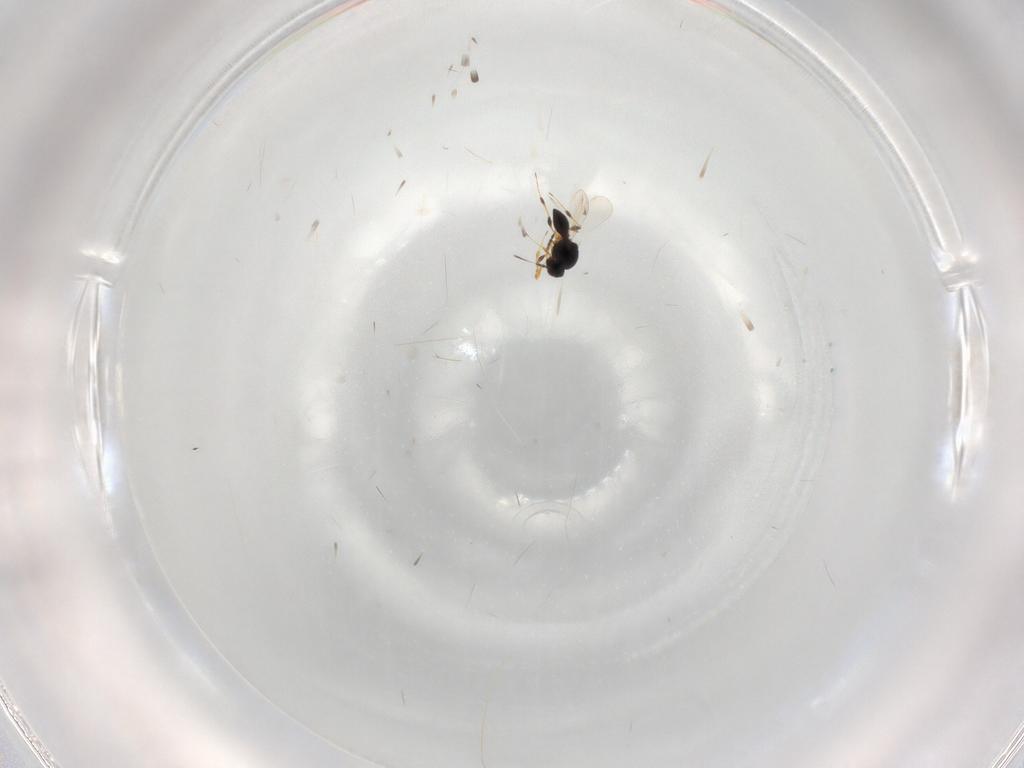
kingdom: Animalia
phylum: Arthropoda
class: Insecta
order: Hymenoptera
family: Platygastridae
